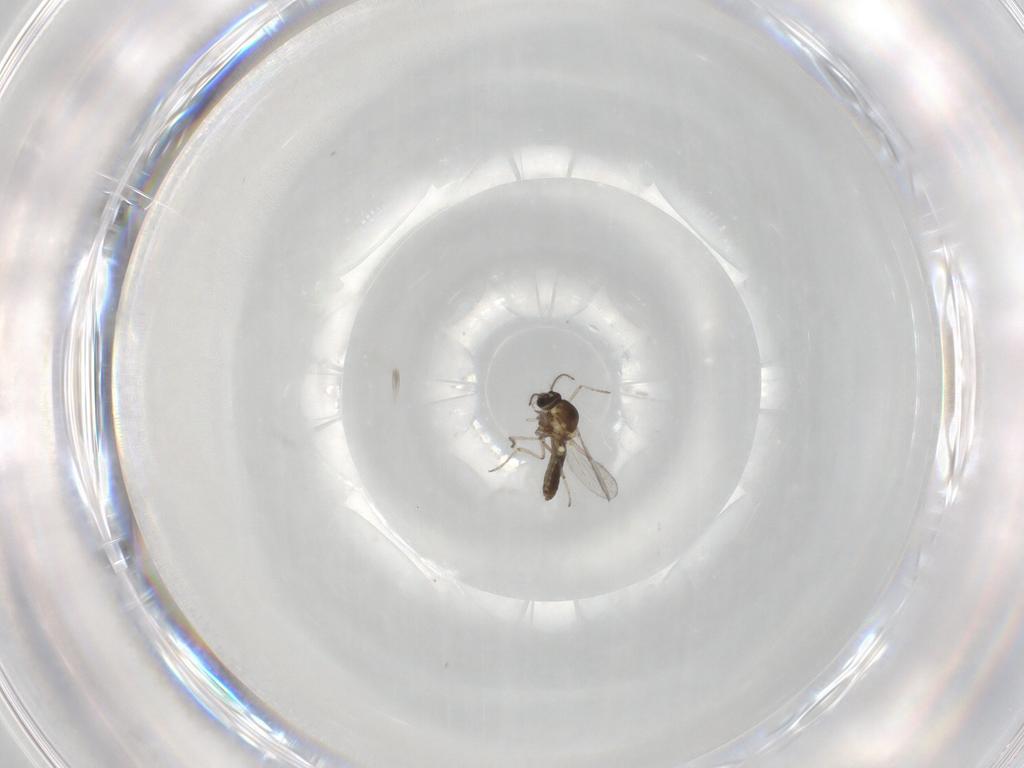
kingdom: Animalia
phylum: Arthropoda
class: Insecta
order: Diptera
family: Ceratopogonidae
